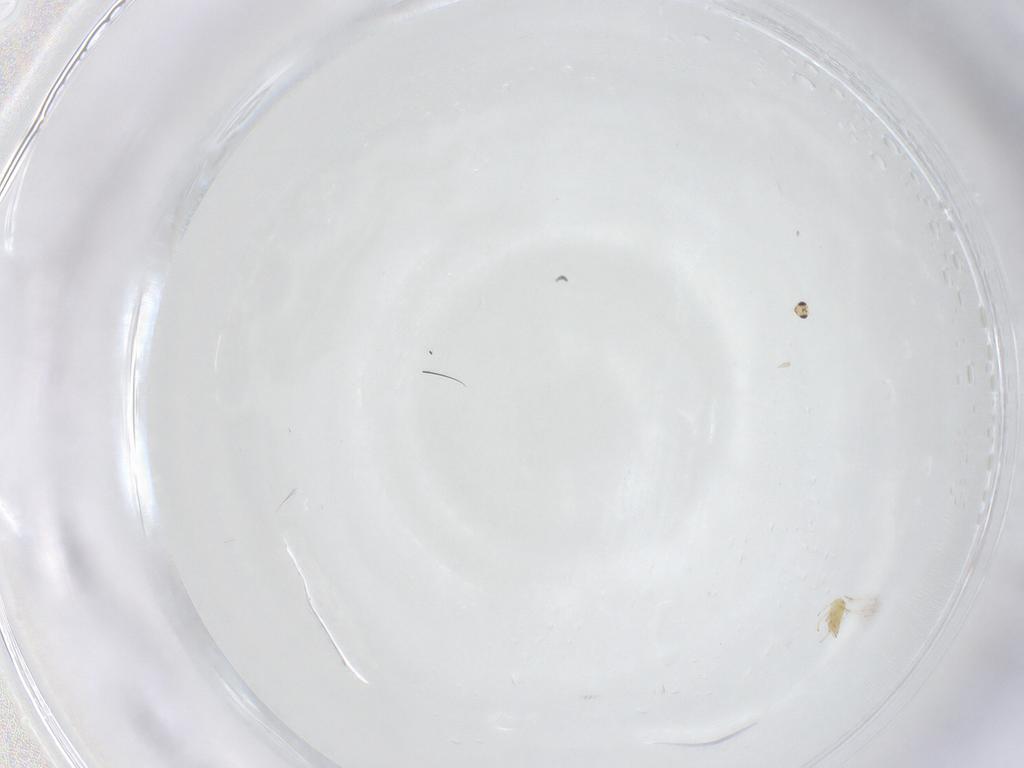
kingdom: Animalia
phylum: Arthropoda
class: Insecta
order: Hymenoptera
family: Mymaridae
